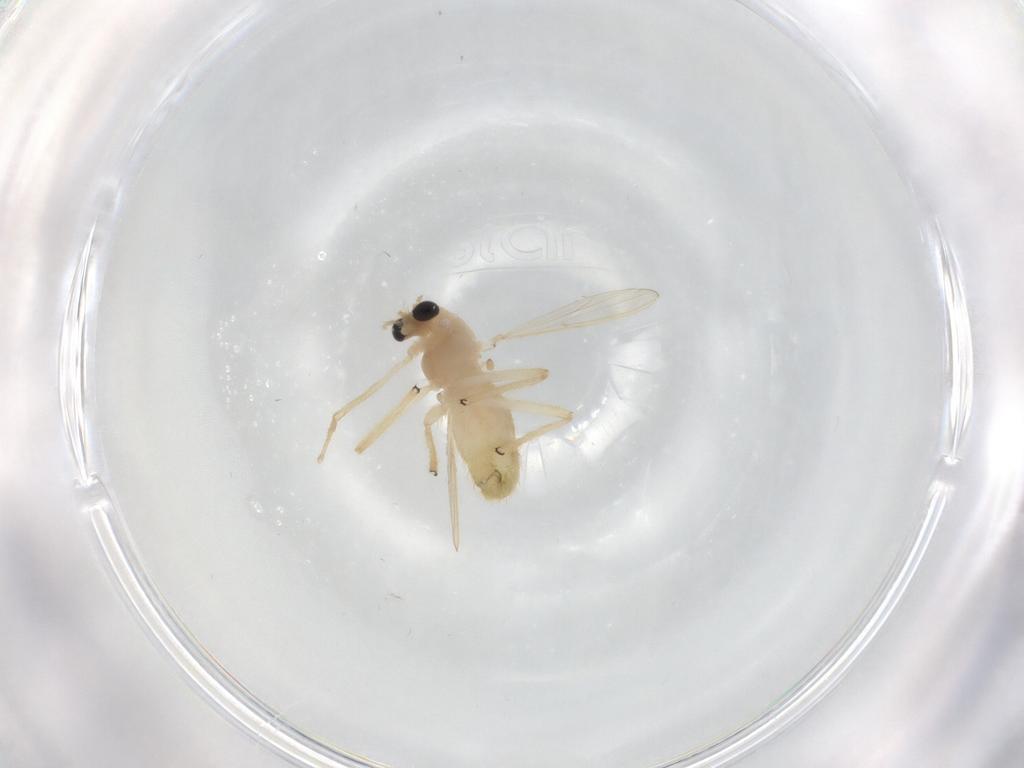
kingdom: Animalia
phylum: Arthropoda
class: Insecta
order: Diptera
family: Chironomidae
